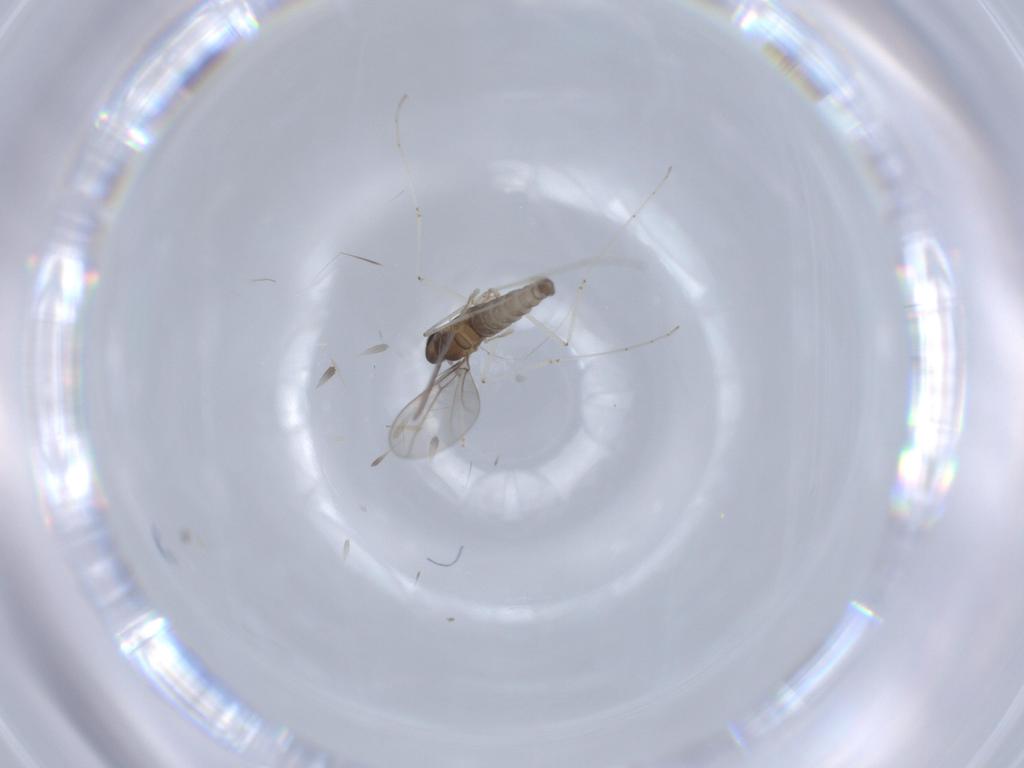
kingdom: Animalia
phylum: Arthropoda
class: Insecta
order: Diptera
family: Cecidomyiidae
